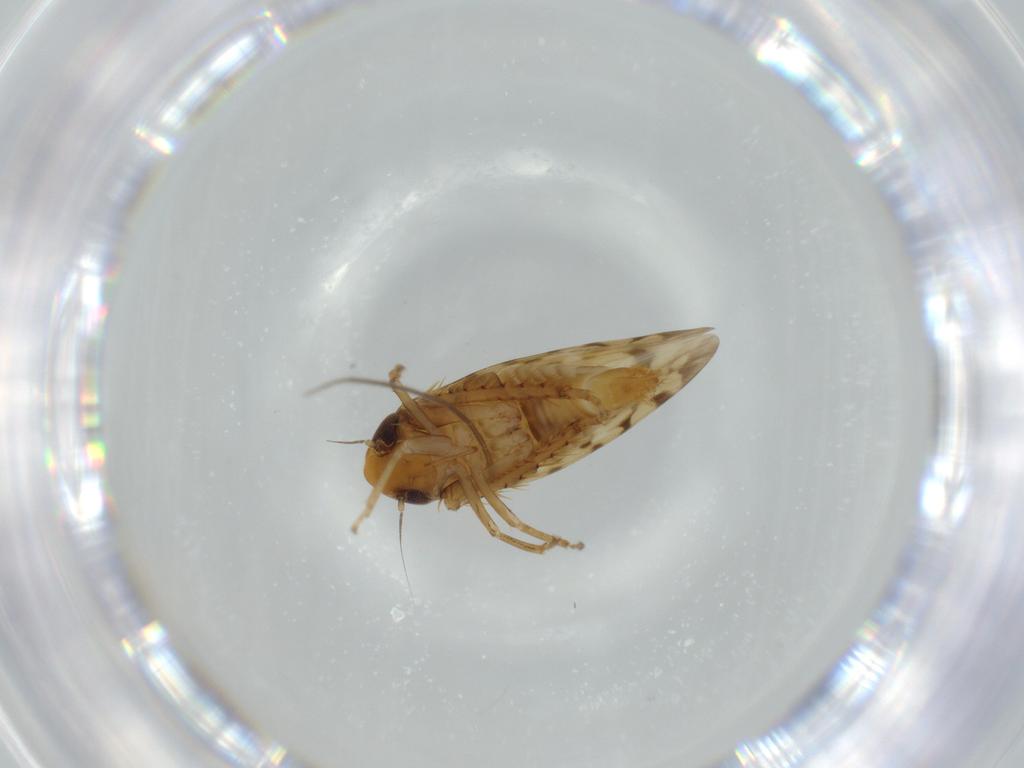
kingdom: Animalia
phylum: Arthropoda
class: Insecta
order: Hemiptera
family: Cicadellidae
